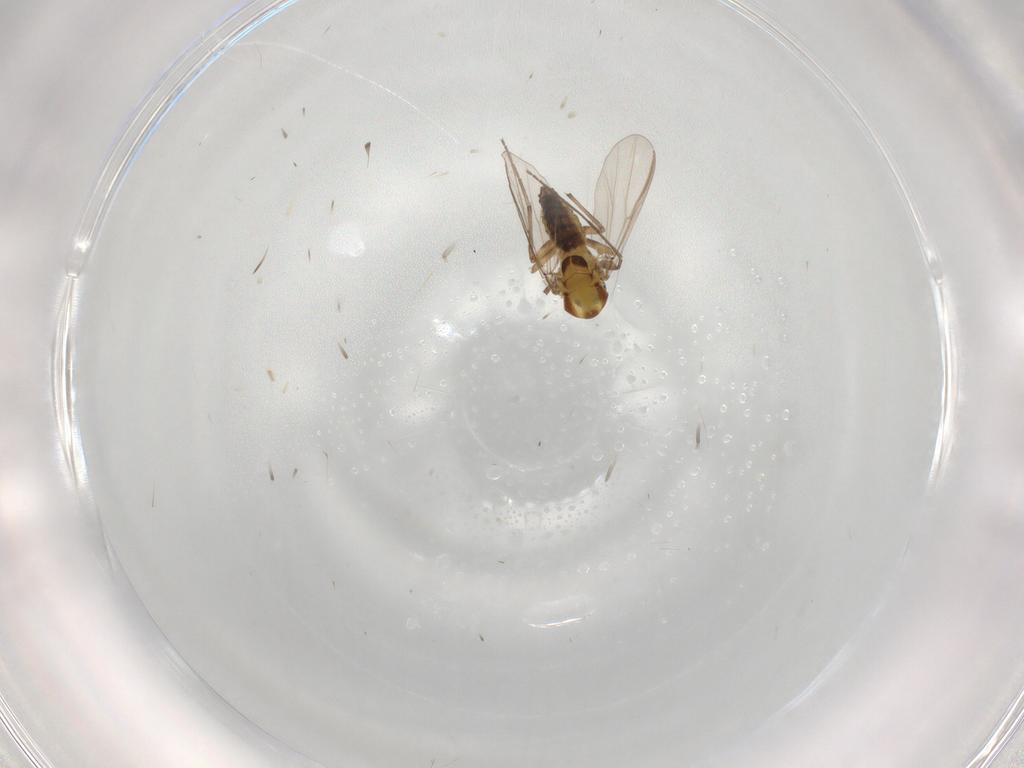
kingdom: Animalia
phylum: Arthropoda
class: Insecta
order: Diptera
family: Chironomidae
